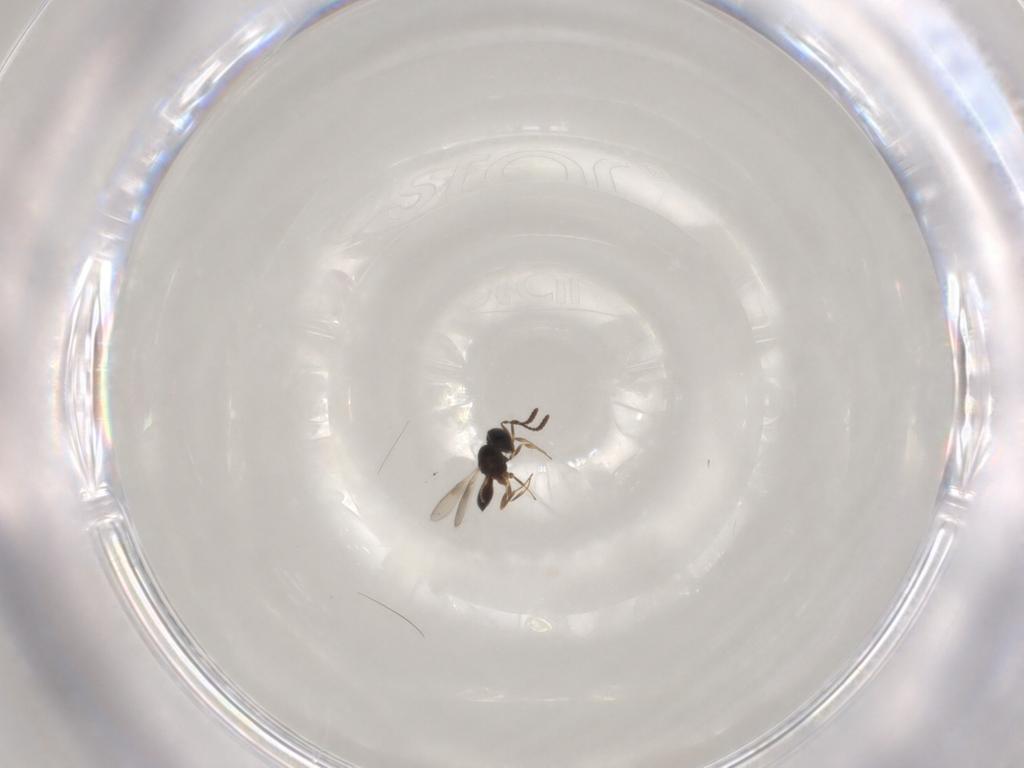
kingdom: Animalia
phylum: Arthropoda
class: Insecta
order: Hymenoptera
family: Scelionidae
